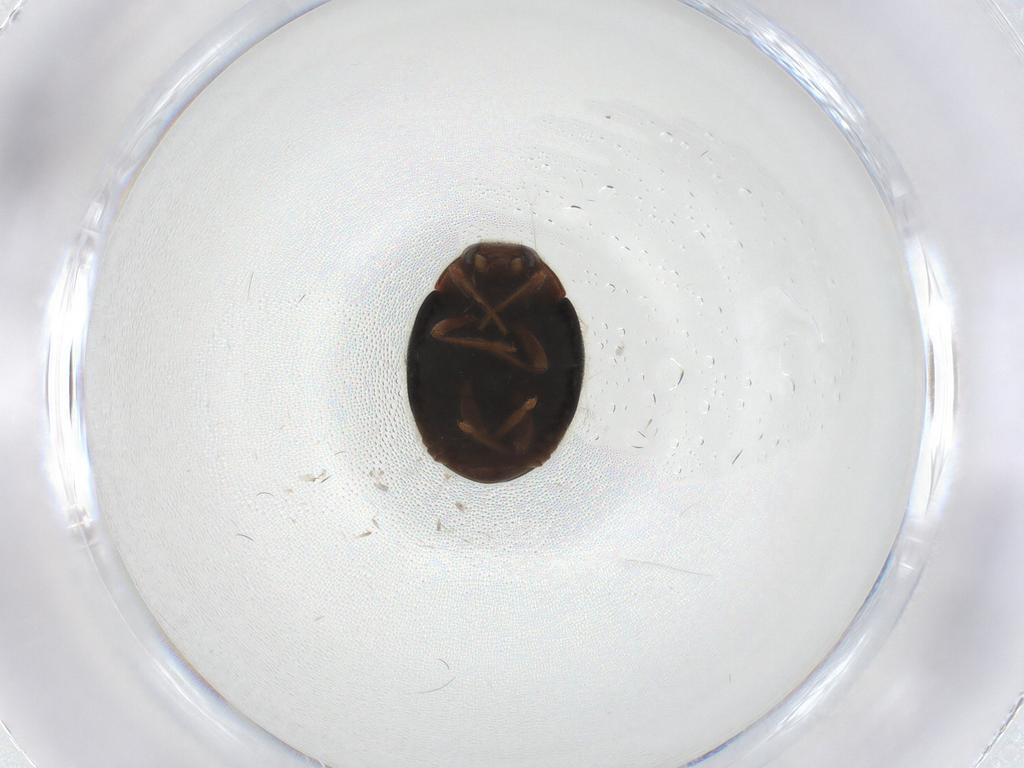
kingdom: Animalia
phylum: Arthropoda
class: Insecta
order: Coleoptera
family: Coccinellidae
